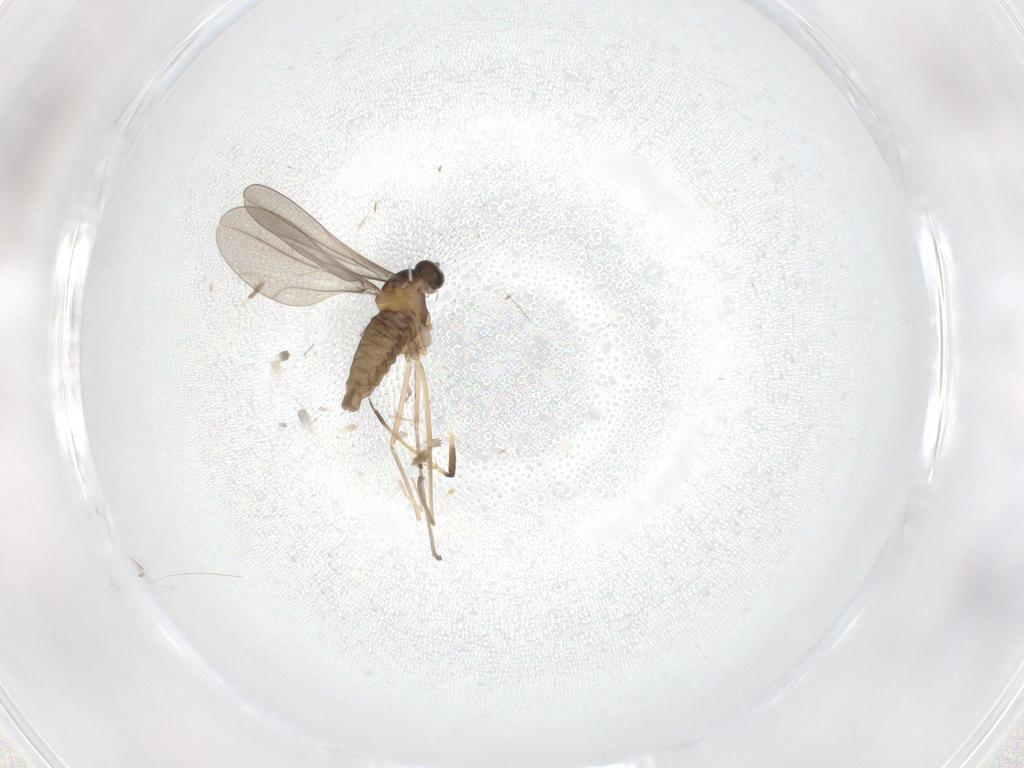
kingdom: Animalia
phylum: Arthropoda
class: Insecta
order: Diptera
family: Cecidomyiidae
